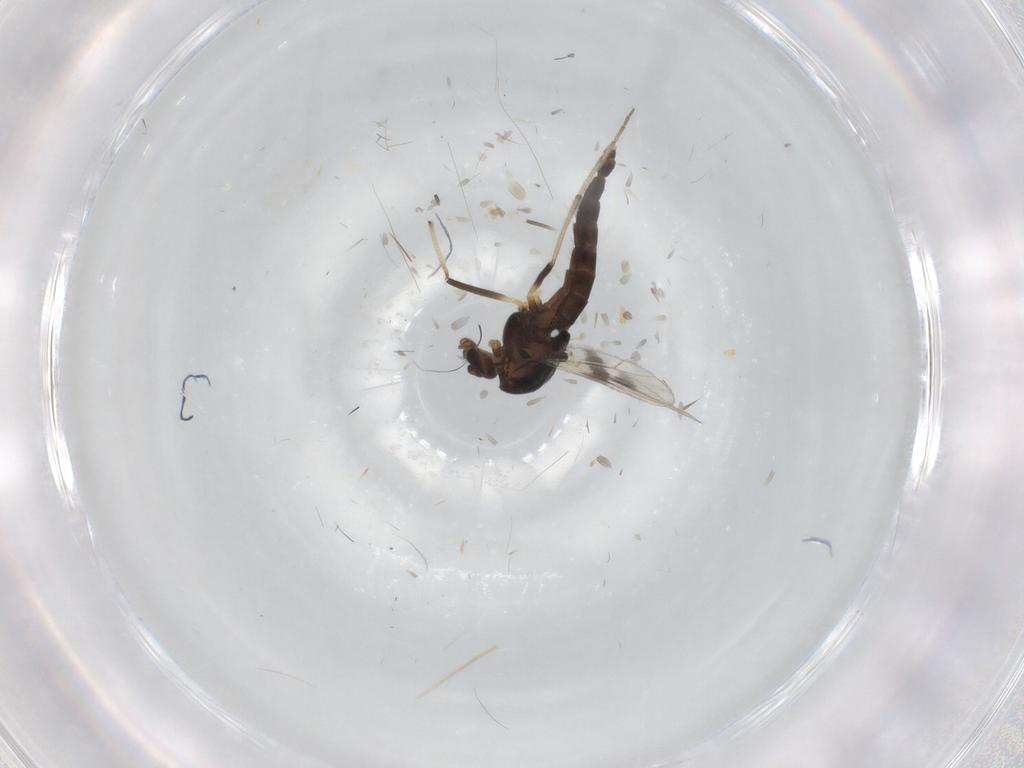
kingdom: Animalia
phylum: Arthropoda
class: Insecta
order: Diptera
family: Chironomidae
